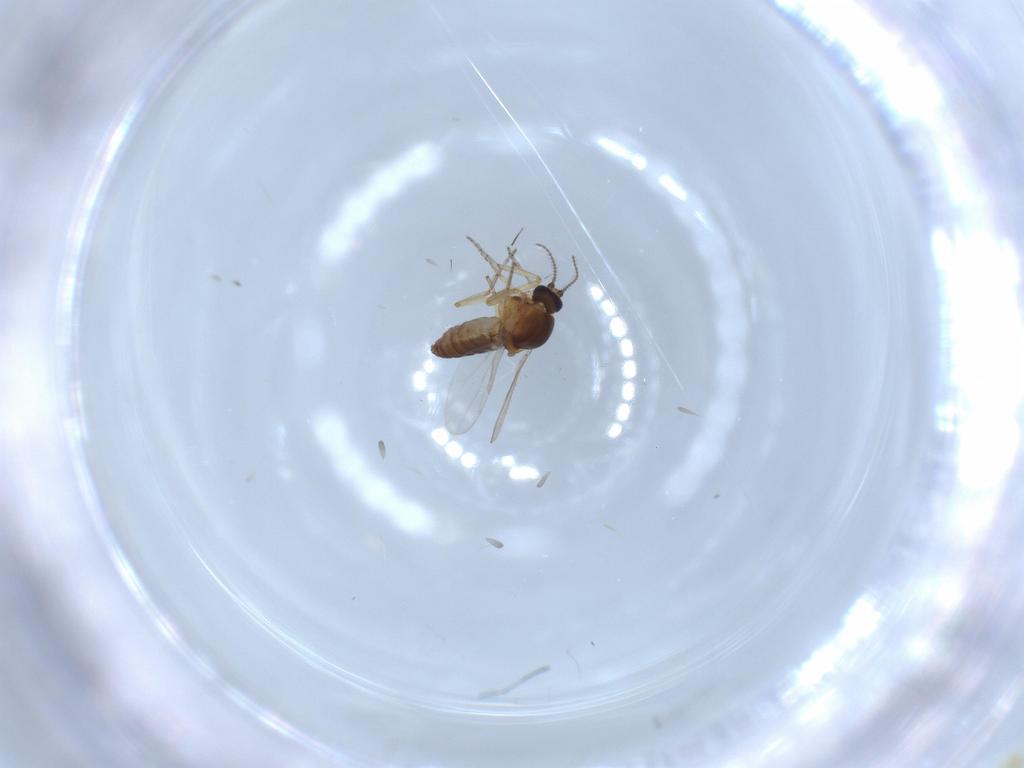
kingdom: Animalia
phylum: Arthropoda
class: Insecta
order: Diptera
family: Ceratopogonidae
